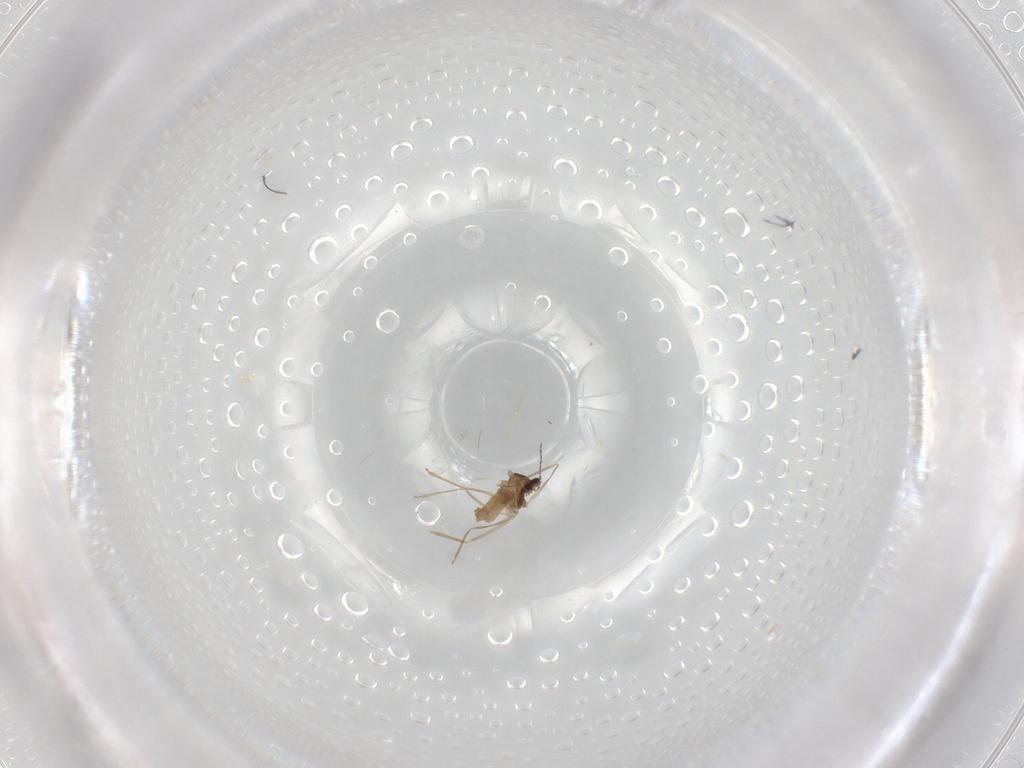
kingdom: Animalia
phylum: Arthropoda
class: Insecta
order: Diptera
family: Cecidomyiidae
